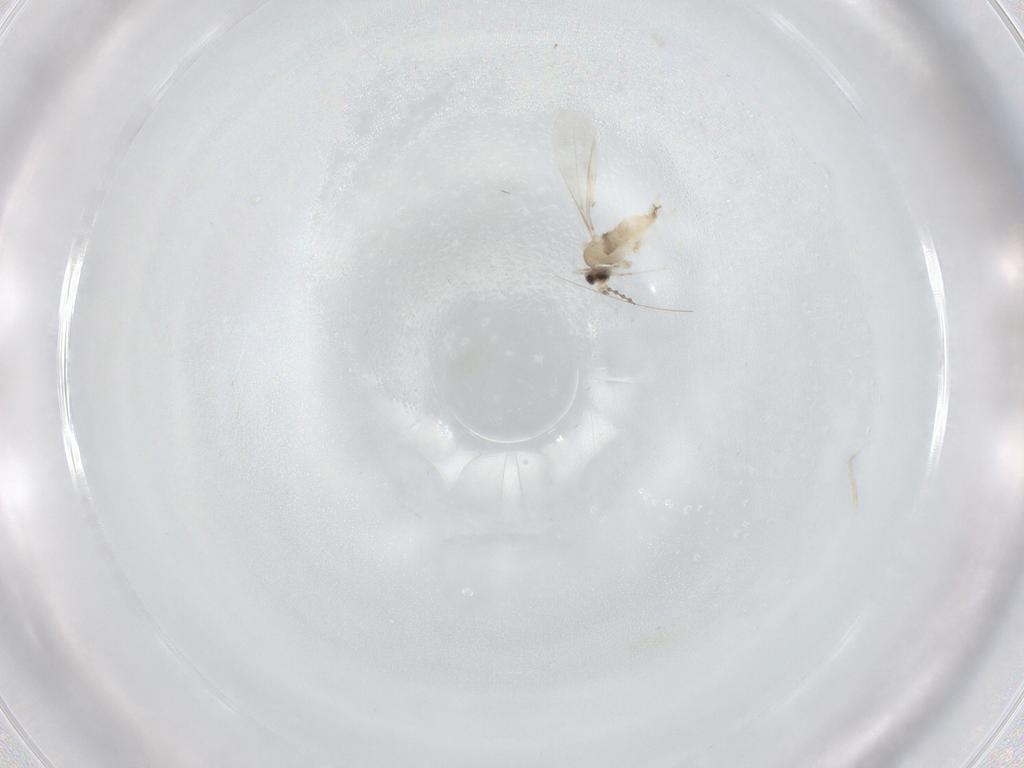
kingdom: Animalia
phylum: Arthropoda
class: Insecta
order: Diptera
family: Cecidomyiidae
